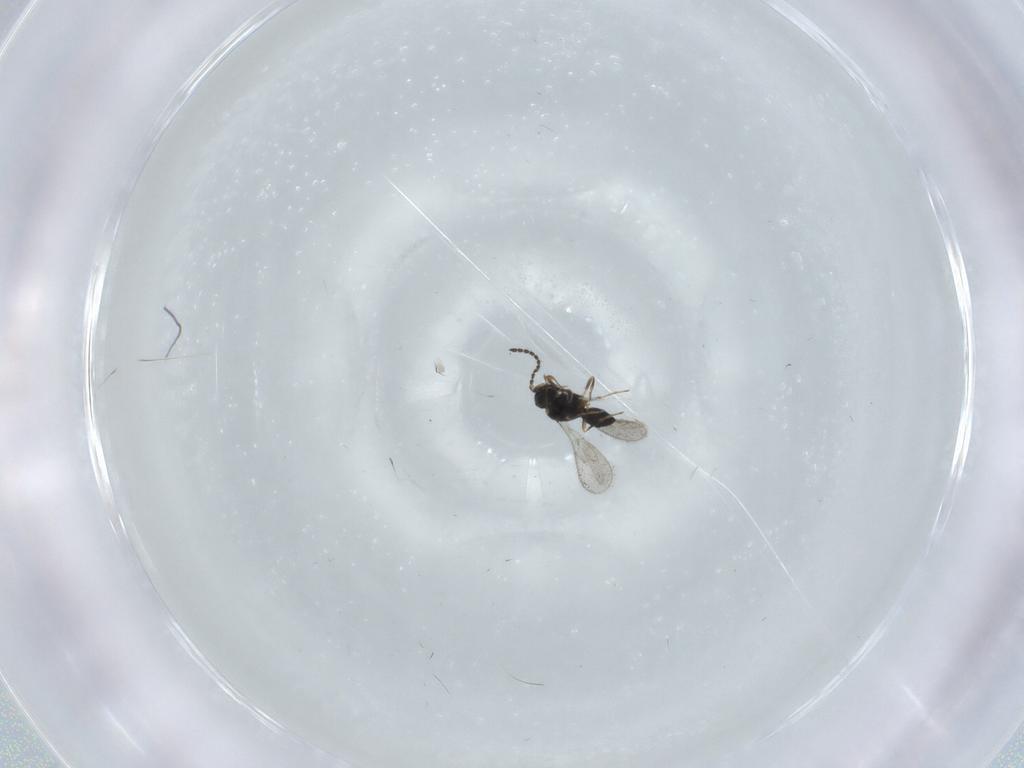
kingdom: Animalia
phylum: Arthropoda
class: Insecta
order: Hymenoptera
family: Scelionidae
